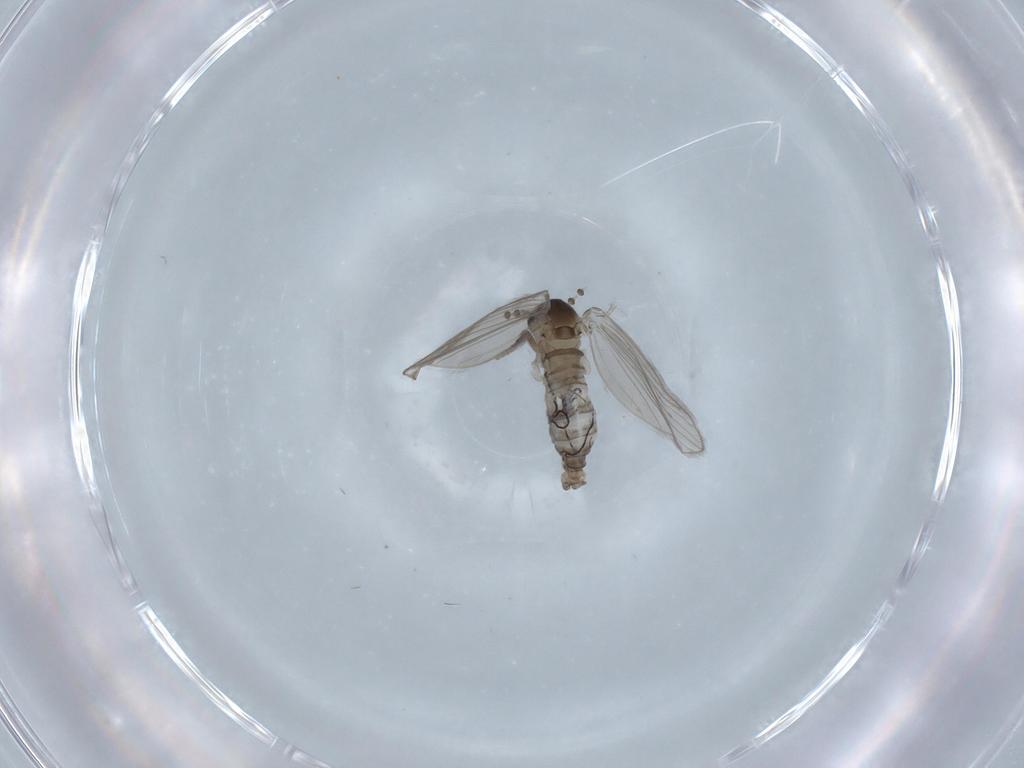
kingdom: Animalia
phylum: Arthropoda
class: Insecta
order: Diptera
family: Psychodidae
